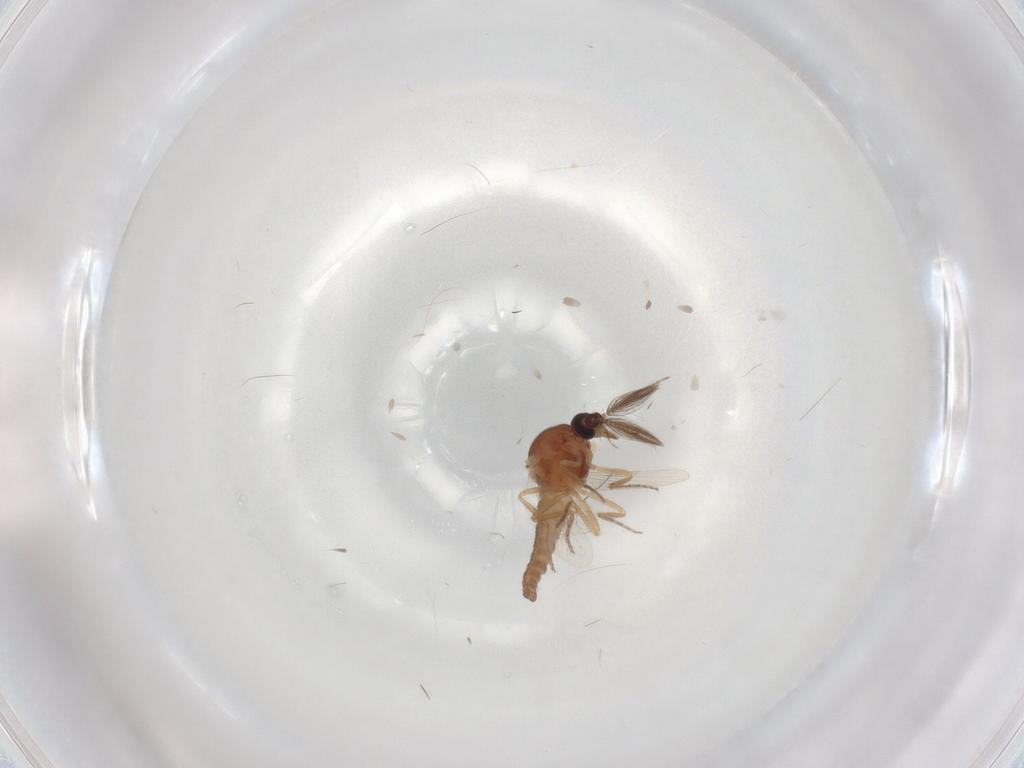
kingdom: Animalia
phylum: Arthropoda
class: Insecta
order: Diptera
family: Ceratopogonidae
